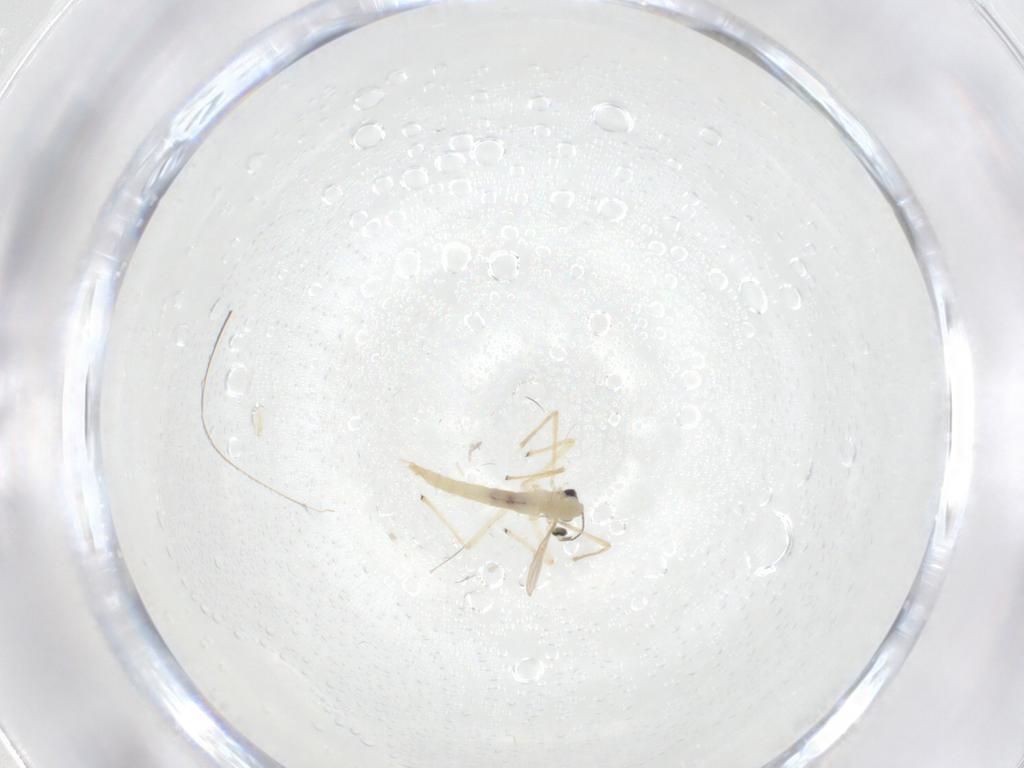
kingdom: Animalia
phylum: Arthropoda
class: Insecta
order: Diptera
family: Chironomidae
